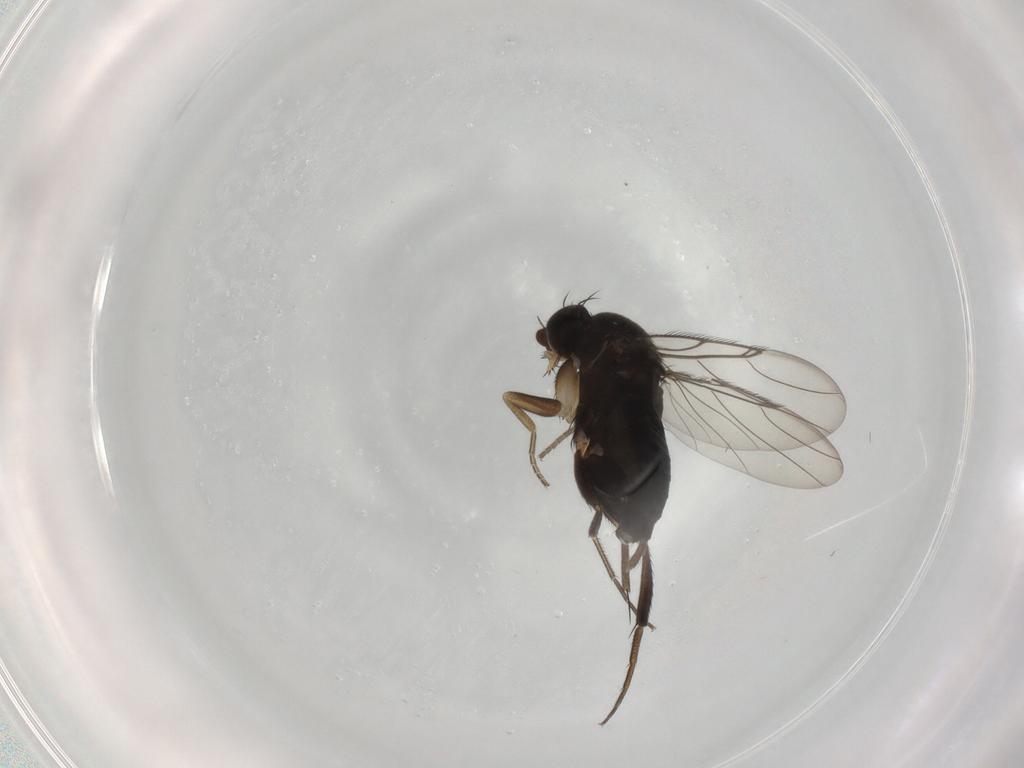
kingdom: Animalia
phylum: Arthropoda
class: Insecta
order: Diptera
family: Phoridae
